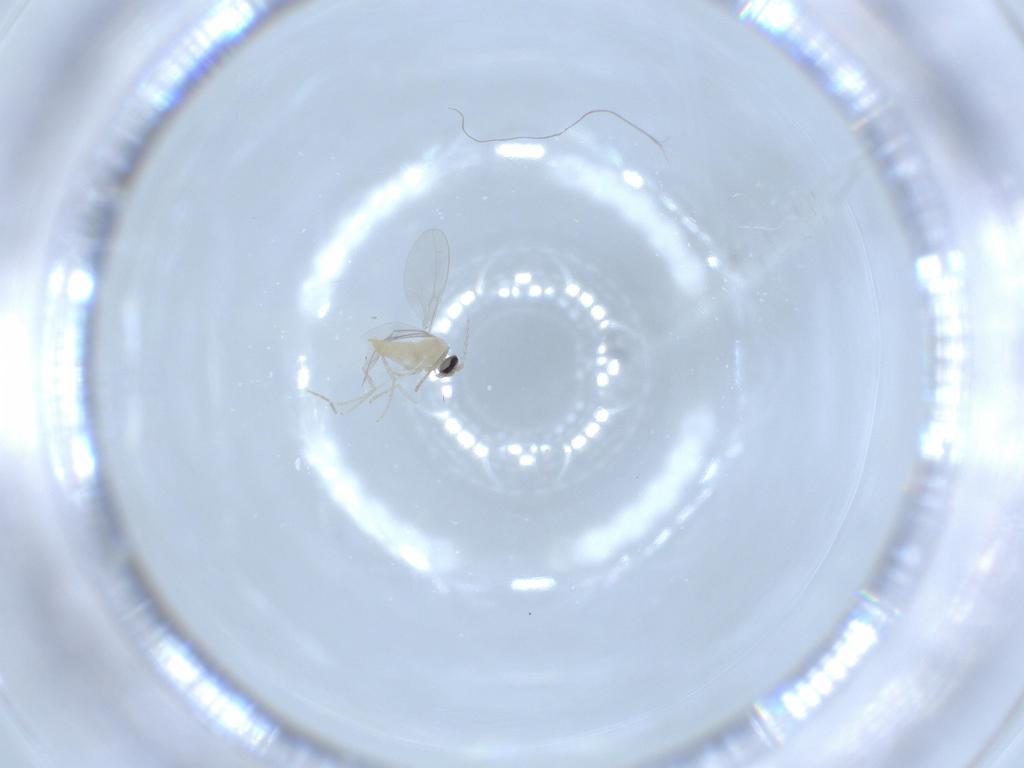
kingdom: Animalia
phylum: Arthropoda
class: Insecta
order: Diptera
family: Cecidomyiidae
